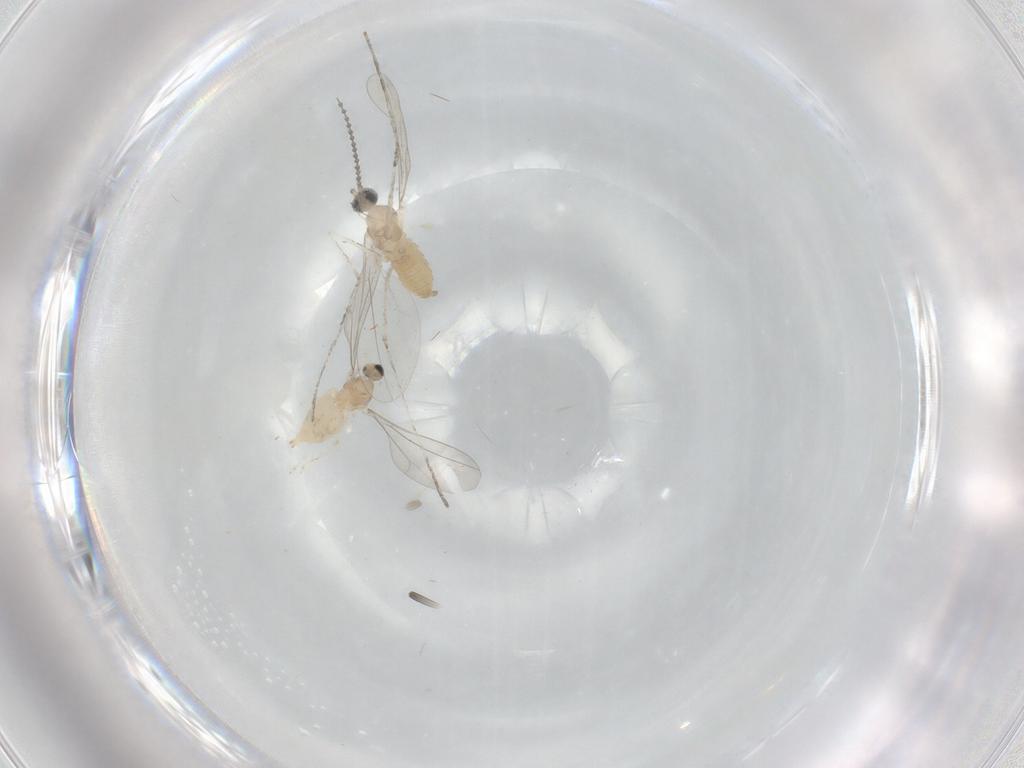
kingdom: Animalia
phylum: Arthropoda
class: Insecta
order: Diptera
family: Cecidomyiidae
